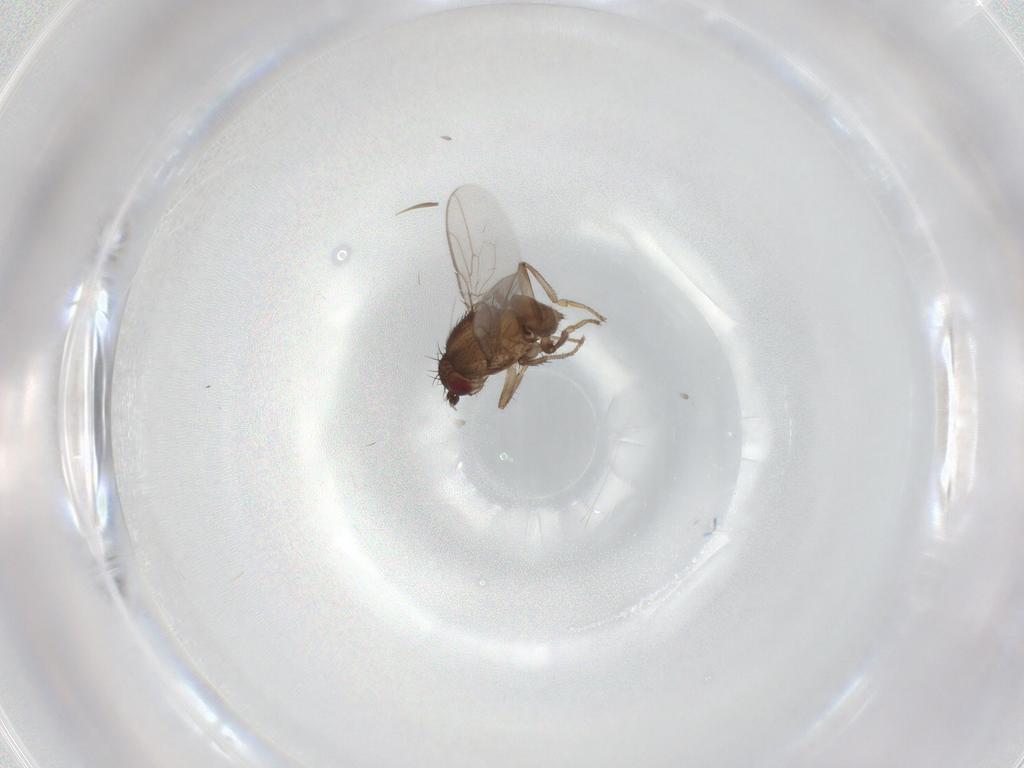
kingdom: Animalia
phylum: Arthropoda
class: Insecta
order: Diptera
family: Sphaeroceridae
